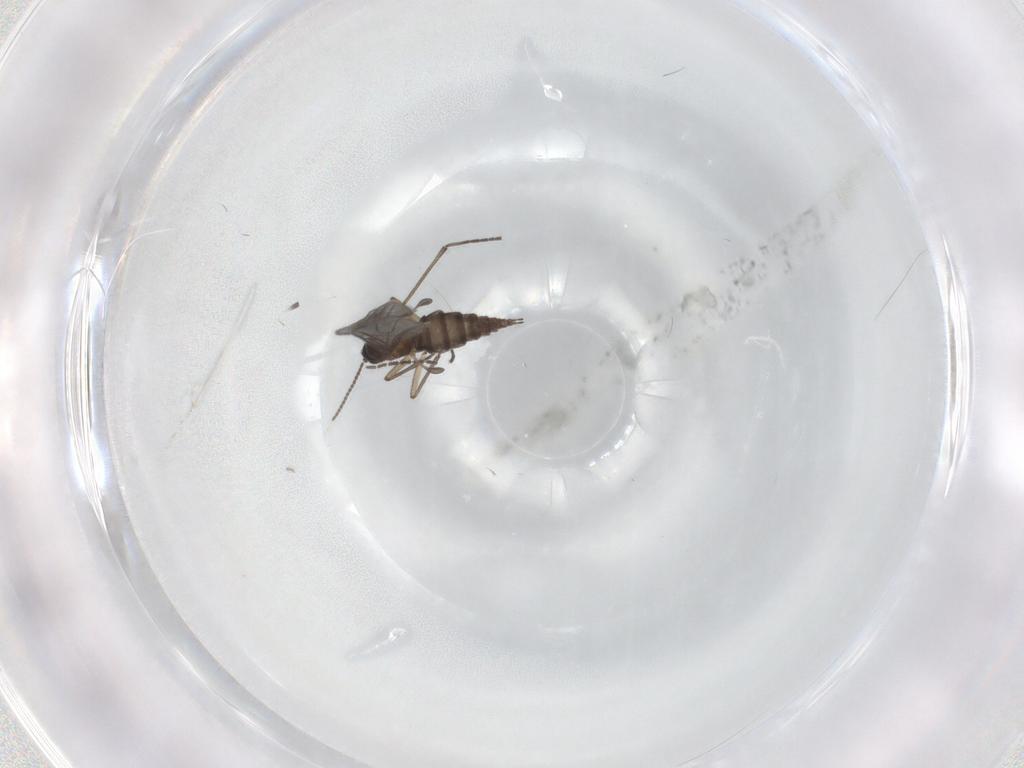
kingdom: Animalia
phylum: Arthropoda
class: Insecta
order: Diptera
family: Sciaridae
